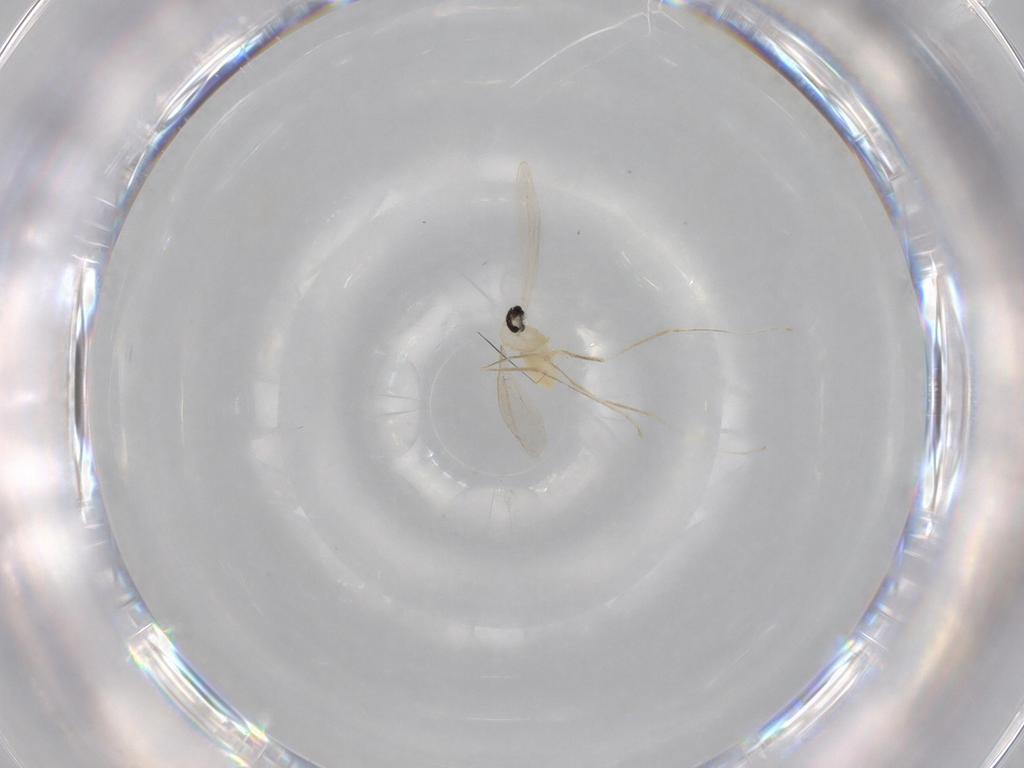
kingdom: Animalia
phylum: Arthropoda
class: Insecta
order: Diptera
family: Cecidomyiidae
